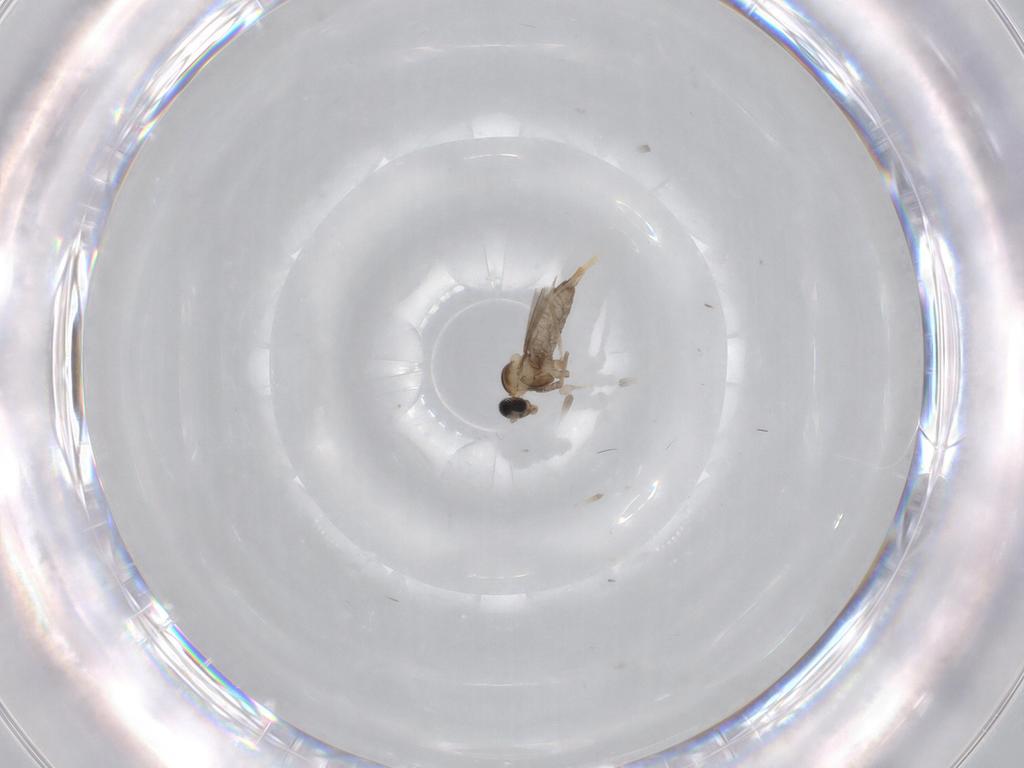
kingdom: Animalia
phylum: Arthropoda
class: Insecta
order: Diptera
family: Cecidomyiidae
